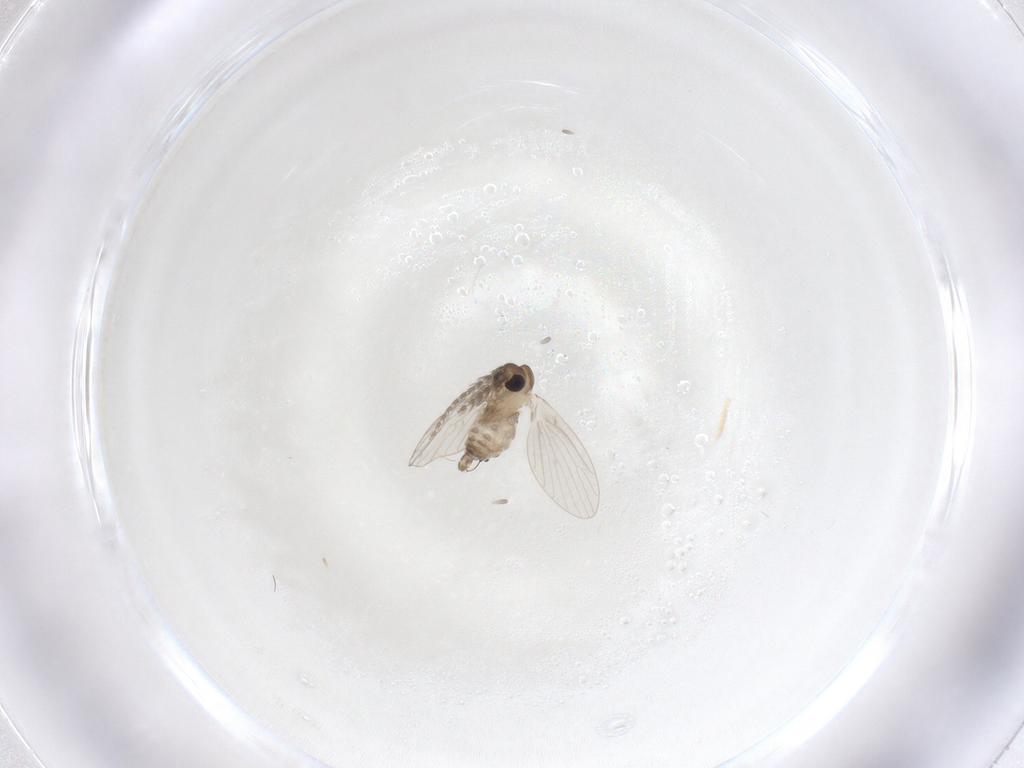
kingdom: Animalia
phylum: Arthropoda
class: Insecta
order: Diptera
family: Psychodidae
